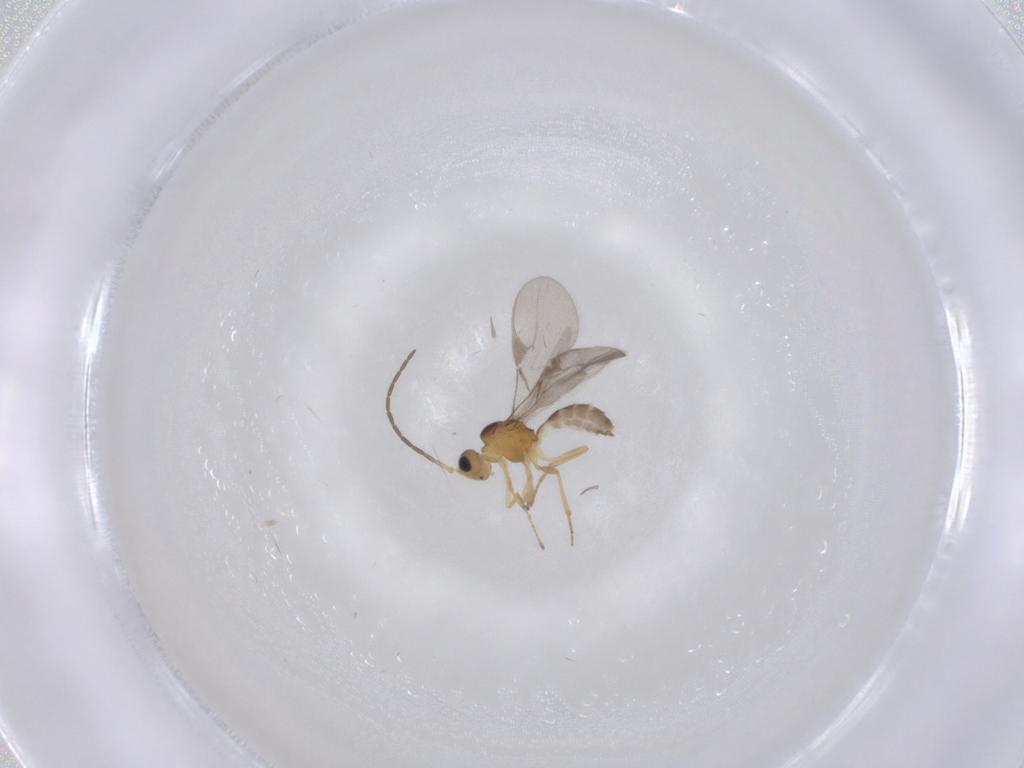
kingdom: Animalia
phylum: Arthropoda
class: Insecta
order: Hymenoptera
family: Braconidae
